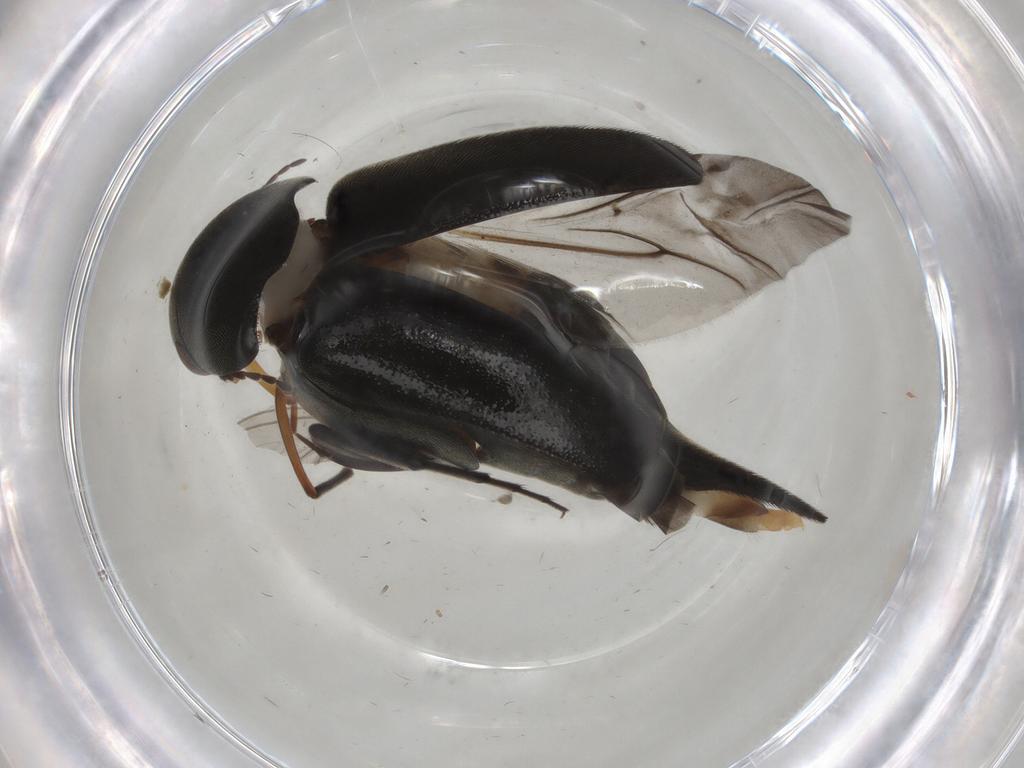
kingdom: Animalia
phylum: Arthropoda
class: Insecta
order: Coleoptera
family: Mordellidae
